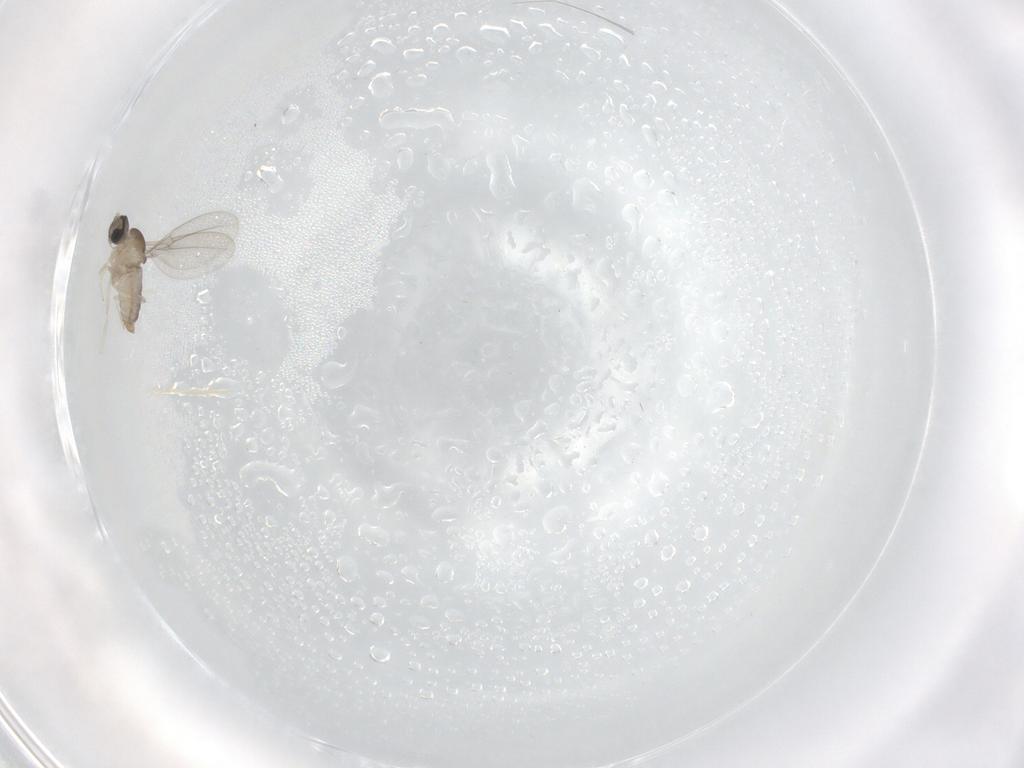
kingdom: Animalia
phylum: Arthropoda
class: Insecta
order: Diptera
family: Cecidomyiidae
